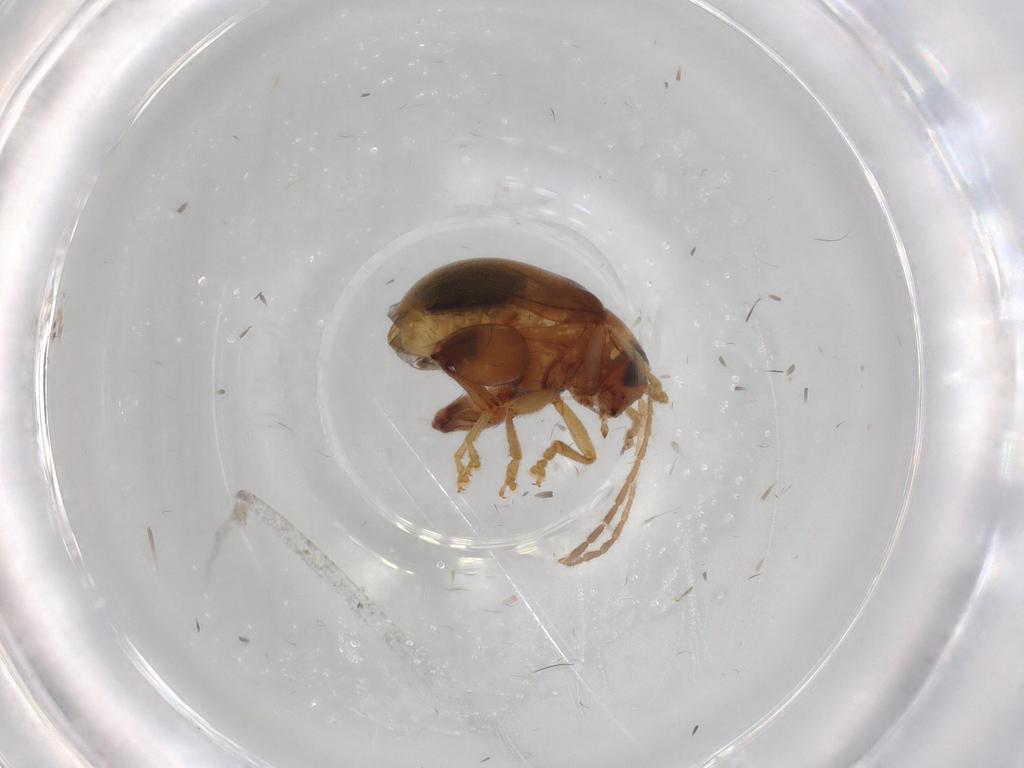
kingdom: Animalia
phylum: Arthropoda
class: Insecta
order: Coleoptera
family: Chrysomelidae
